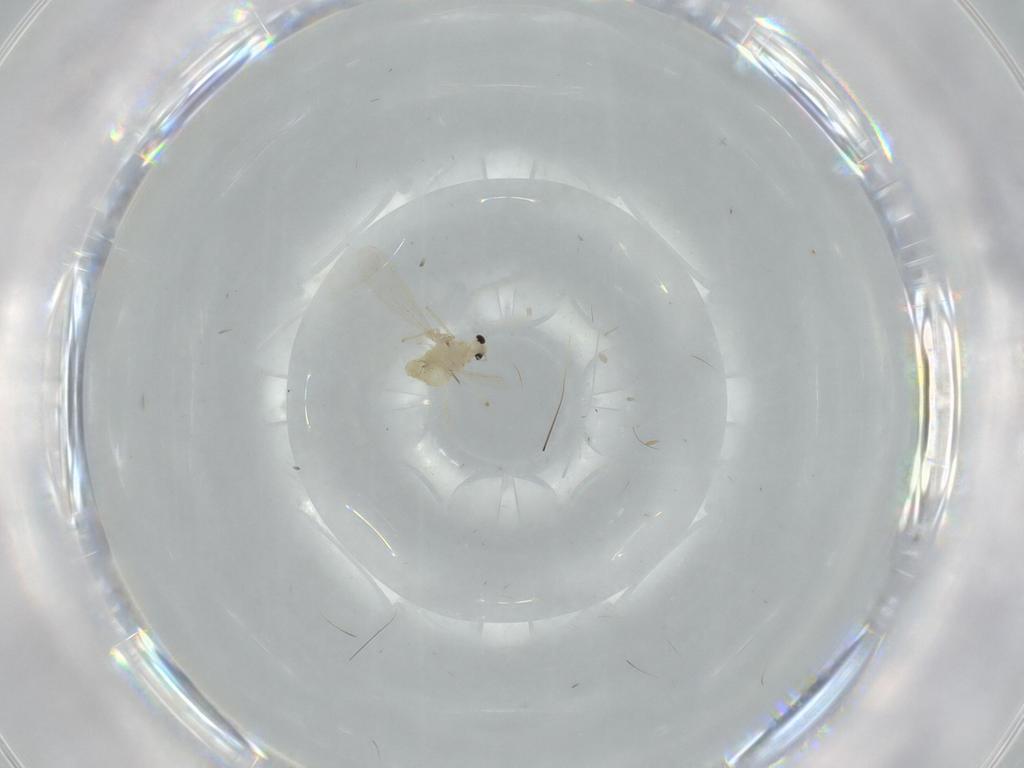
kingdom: Animalia
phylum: Arthropoda
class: Insecta
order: Diptera
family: Chironomidae
